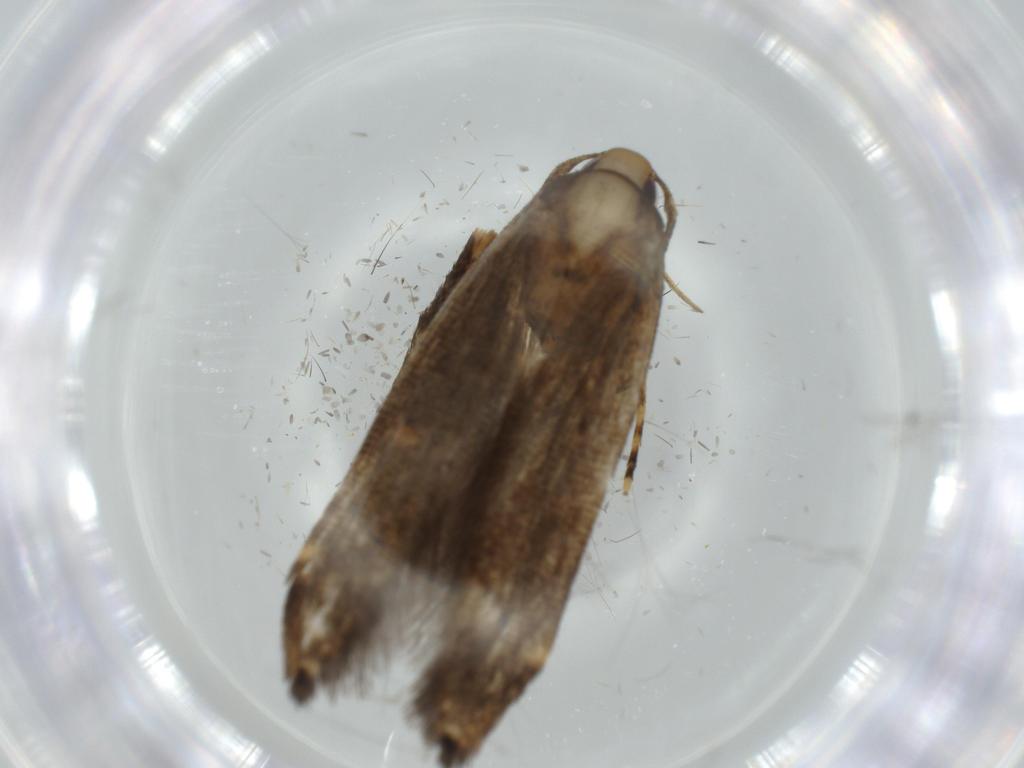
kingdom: Animalia
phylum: Arthropoda
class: Insecta
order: Lepidoptera
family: Cosmopterigidae
